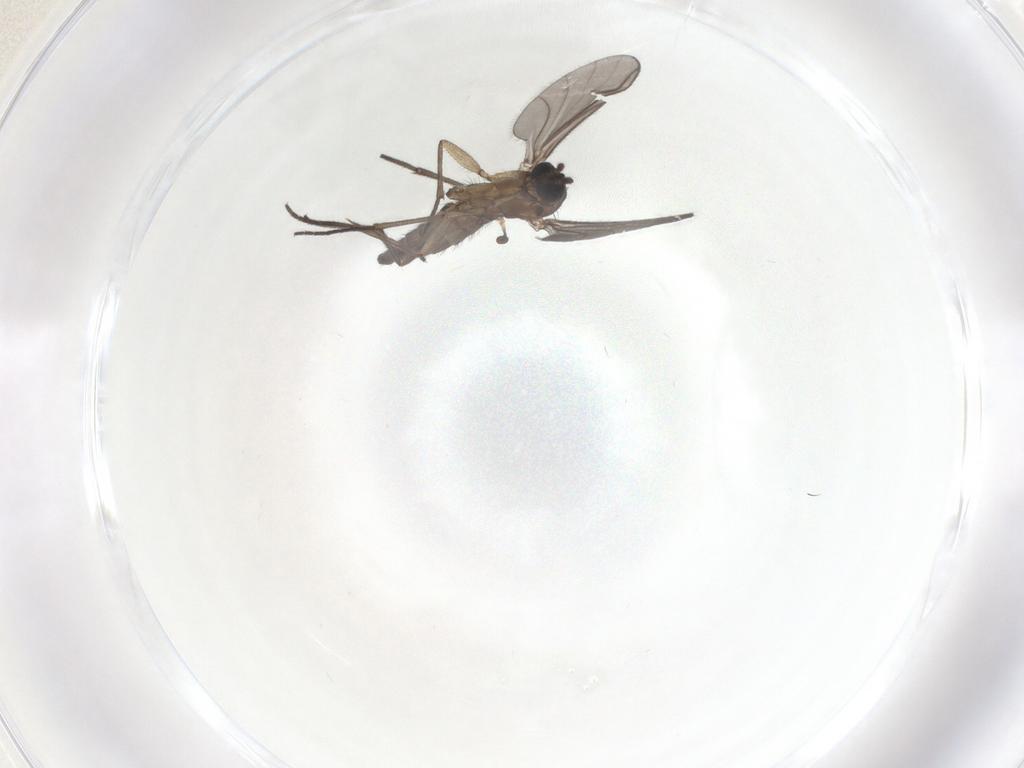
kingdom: Animalia
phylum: Arthropoda
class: Insecta
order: Diptera
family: Sciaridae
